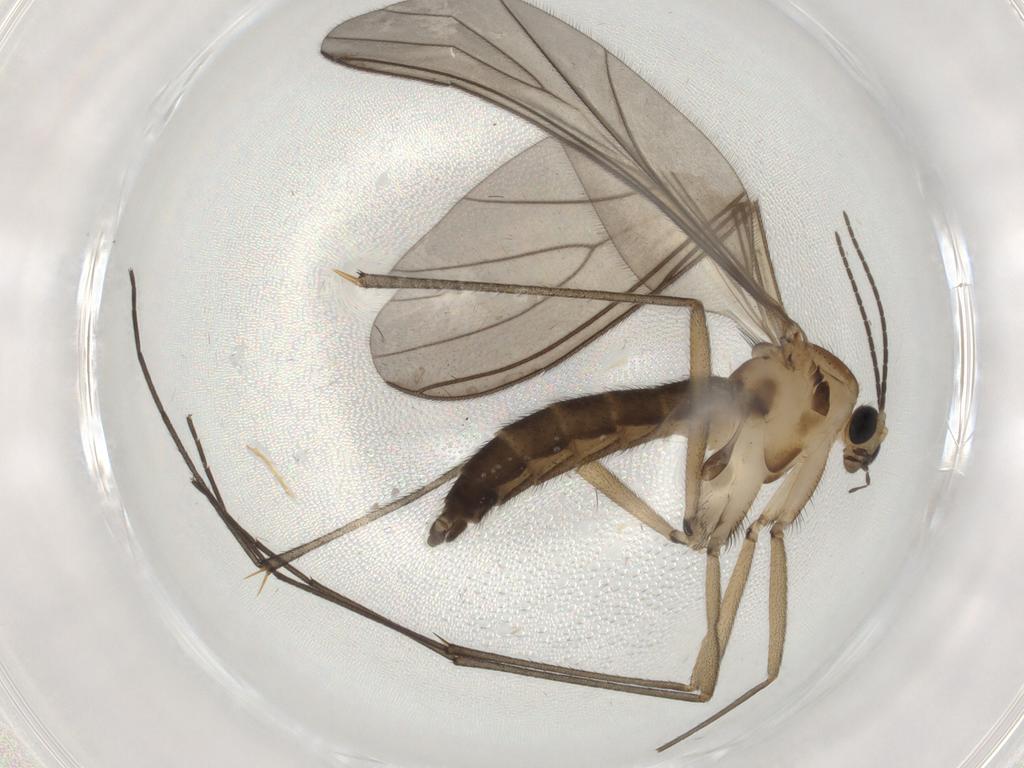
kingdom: Animalia
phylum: Arthropoda
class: Insecta
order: Diptera
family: Sciaridae
